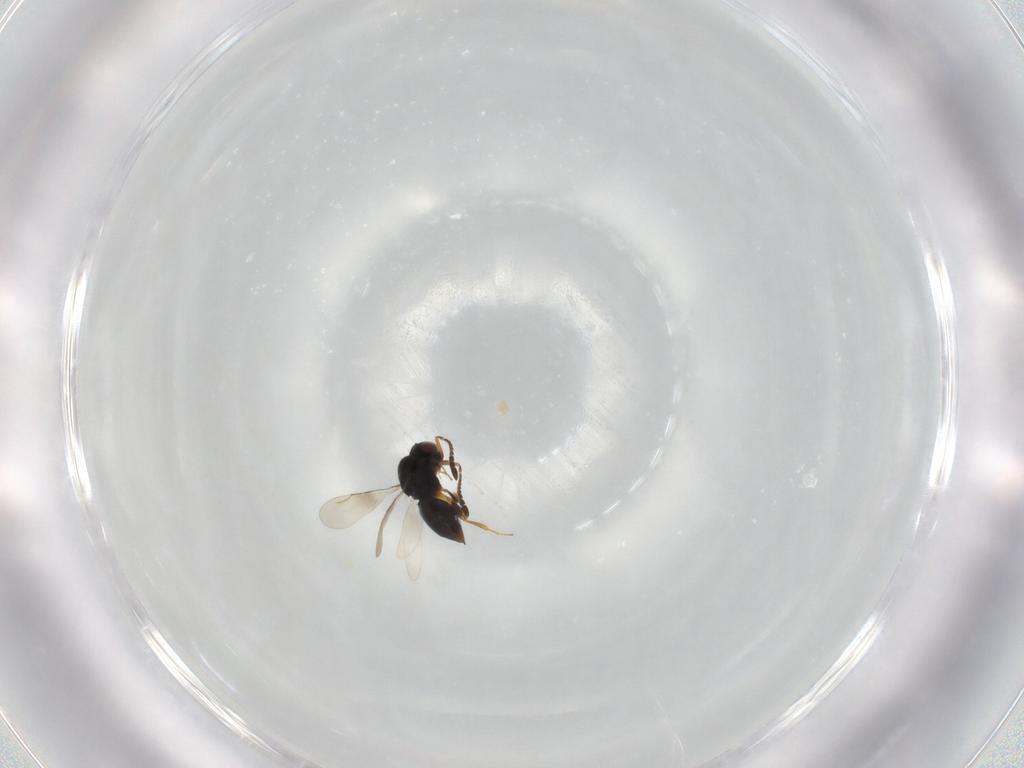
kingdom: Animalia
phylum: Arthropoda
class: Insecta
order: Hymenoptera
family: Ceraphronidae
